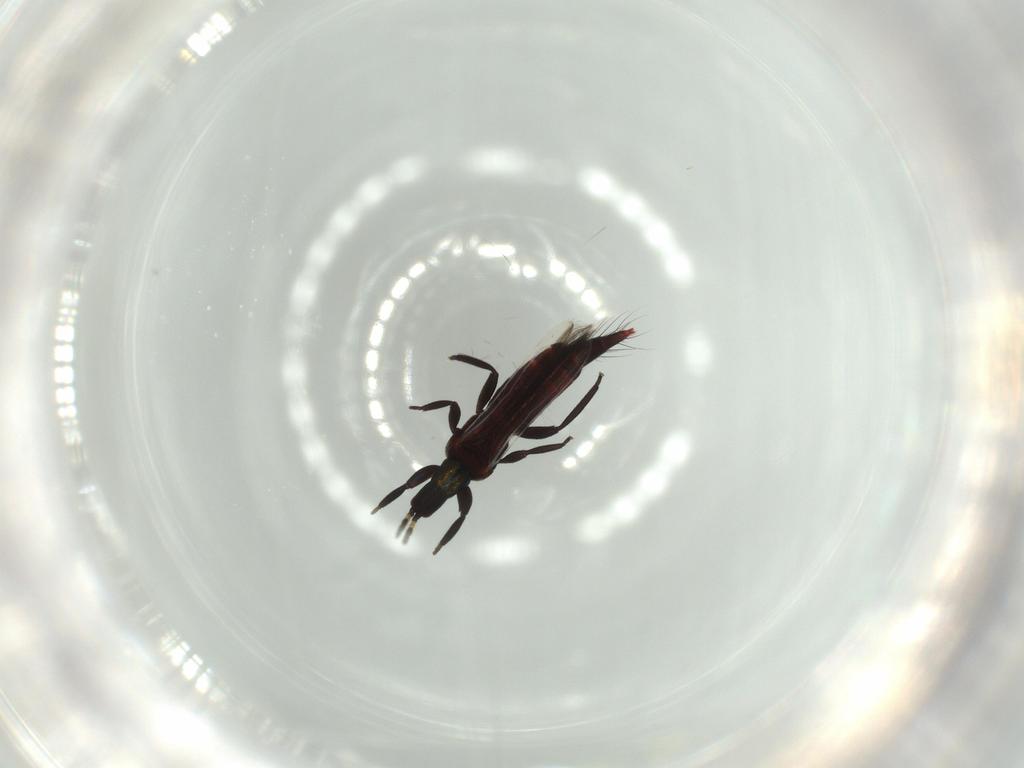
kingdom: Animalia
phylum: Arthropoda
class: Insecta
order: Thysanoptera
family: Aeolothripidae
